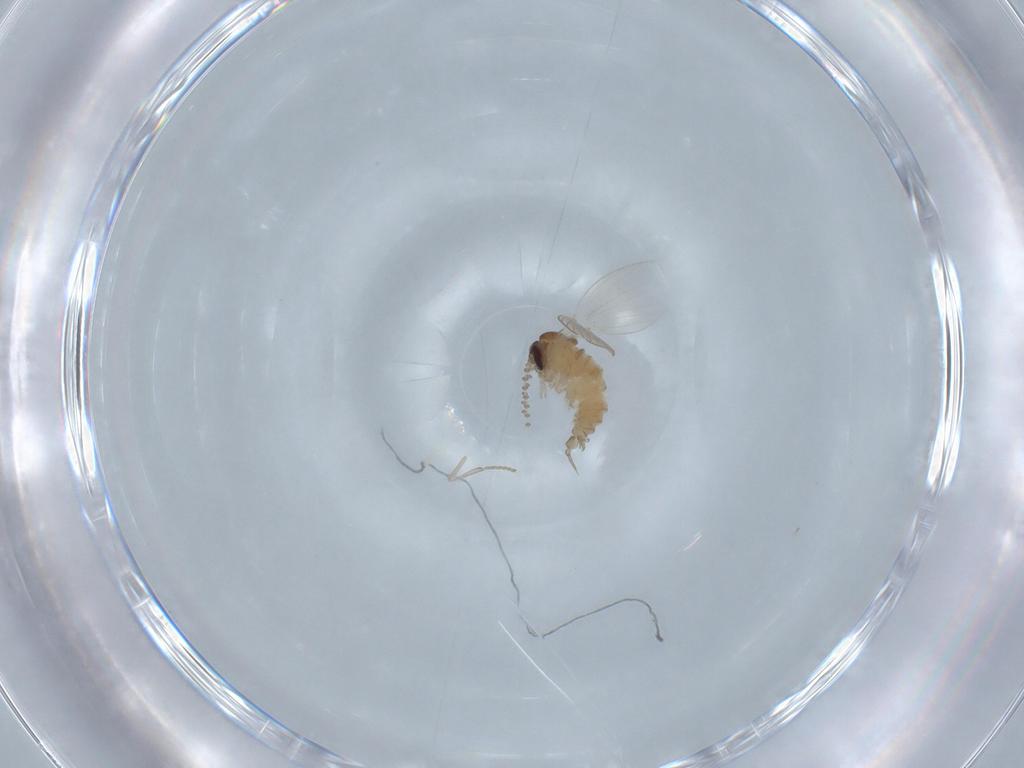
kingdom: Animalia
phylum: Arthropoda
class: Insecta
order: Diptera
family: Psychodidae
